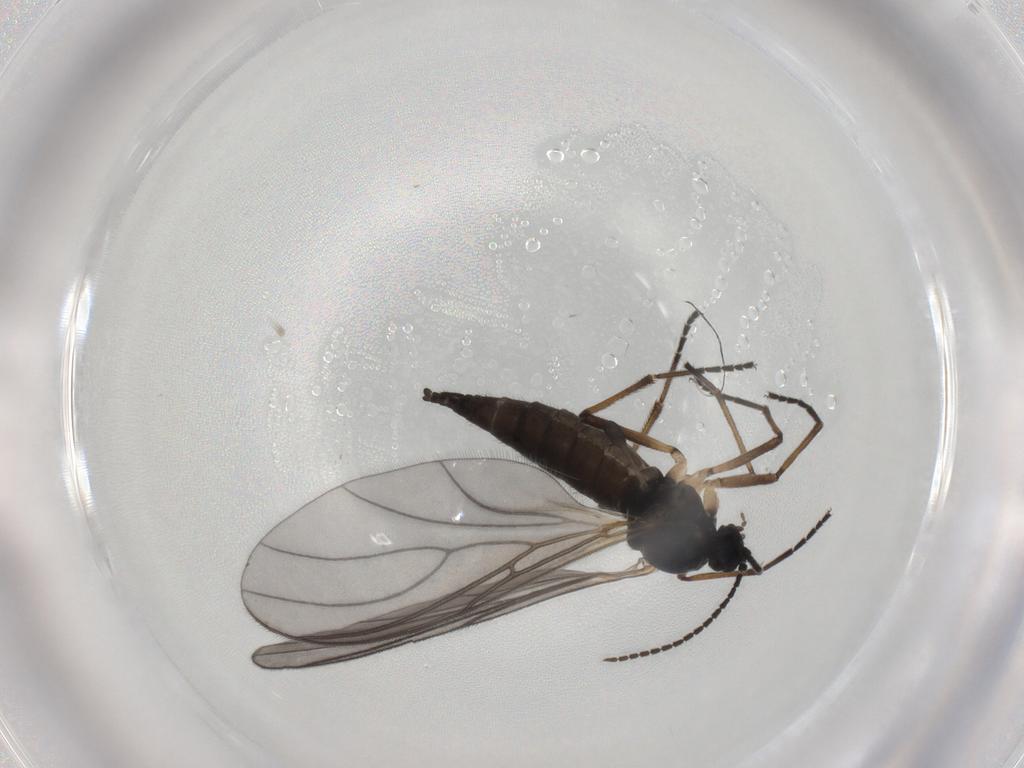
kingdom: Animalia
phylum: Arthropoda
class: Insecta
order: Diptera
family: Sciaridae
